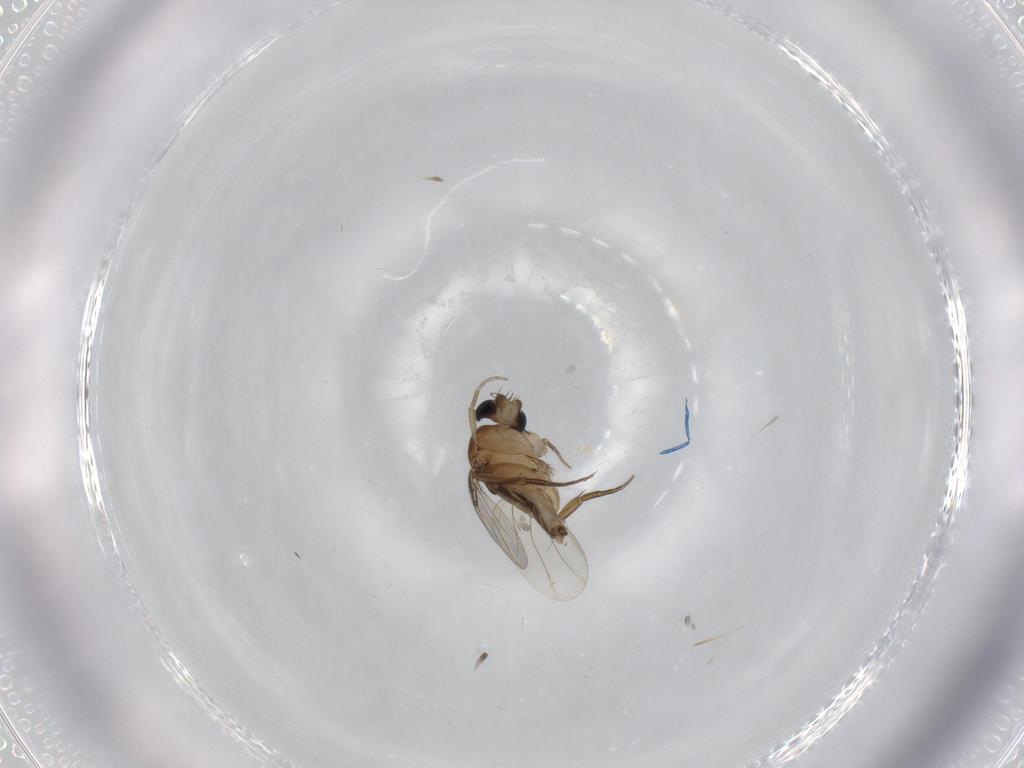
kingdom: Animalia
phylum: Arthropoda
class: Insecta
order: Diptera
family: Phoridae
